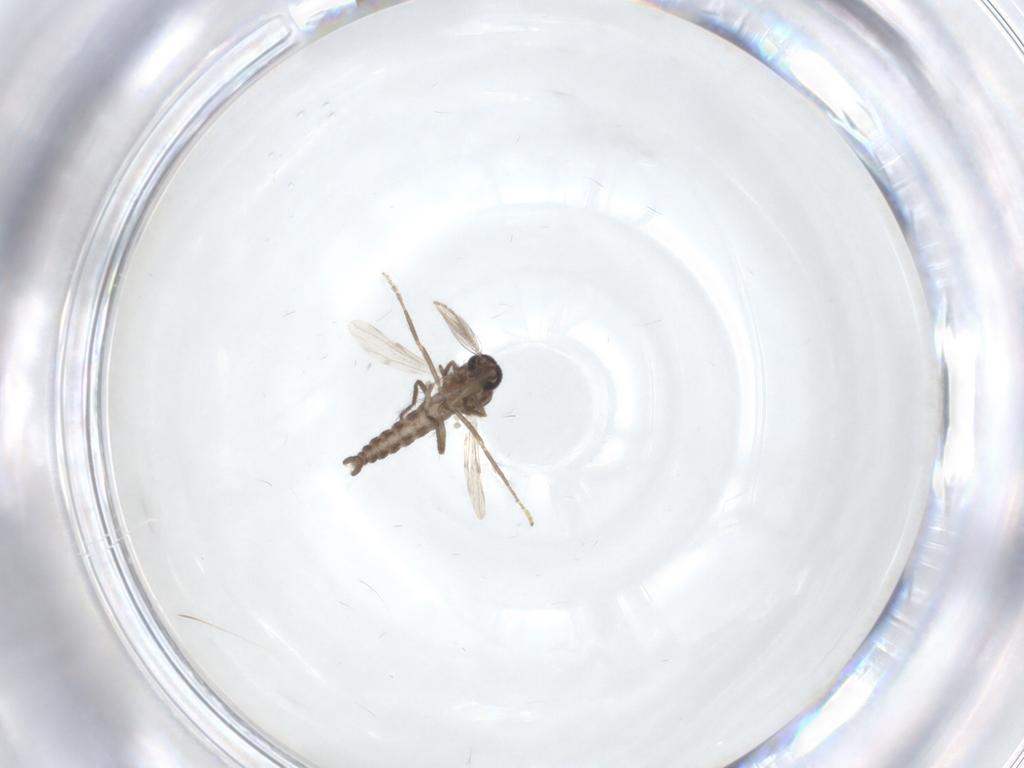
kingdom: Animalia
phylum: Arthropoda
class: Insecta
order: Diptera
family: Ceratopogonidae
